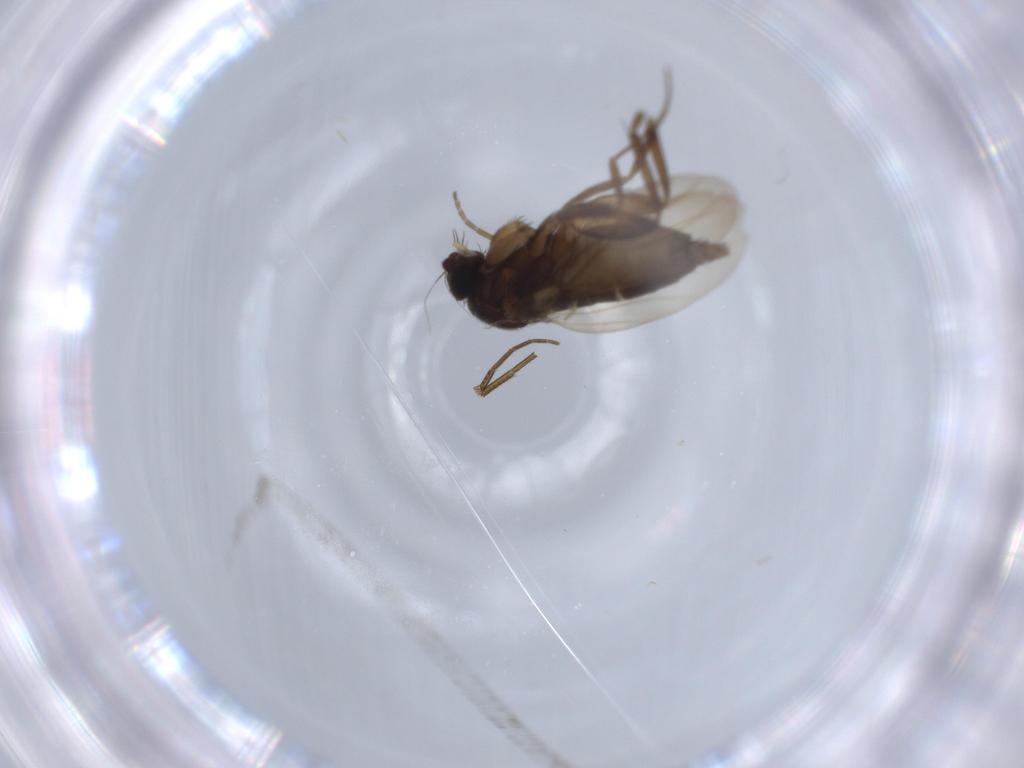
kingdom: Animalia
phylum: Arthropoda
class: Insecta
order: Diptera
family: Phoridae
